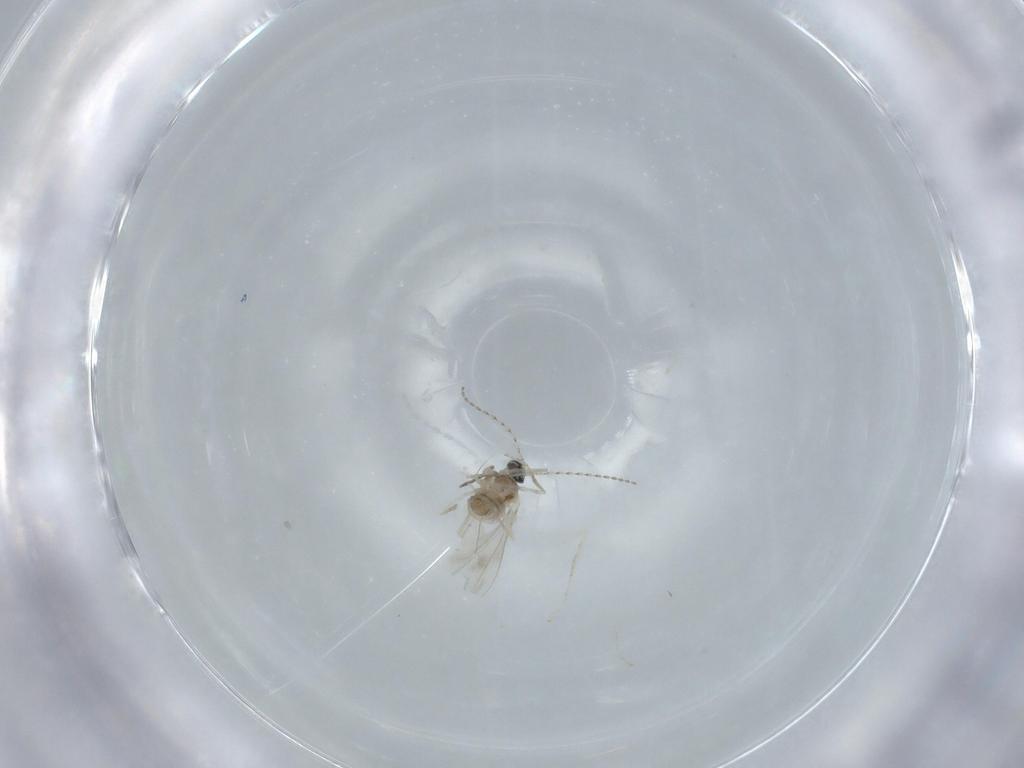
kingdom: Animalia
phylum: Arthropoda
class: Insecta
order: Diptera
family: Cecidomyiidae
